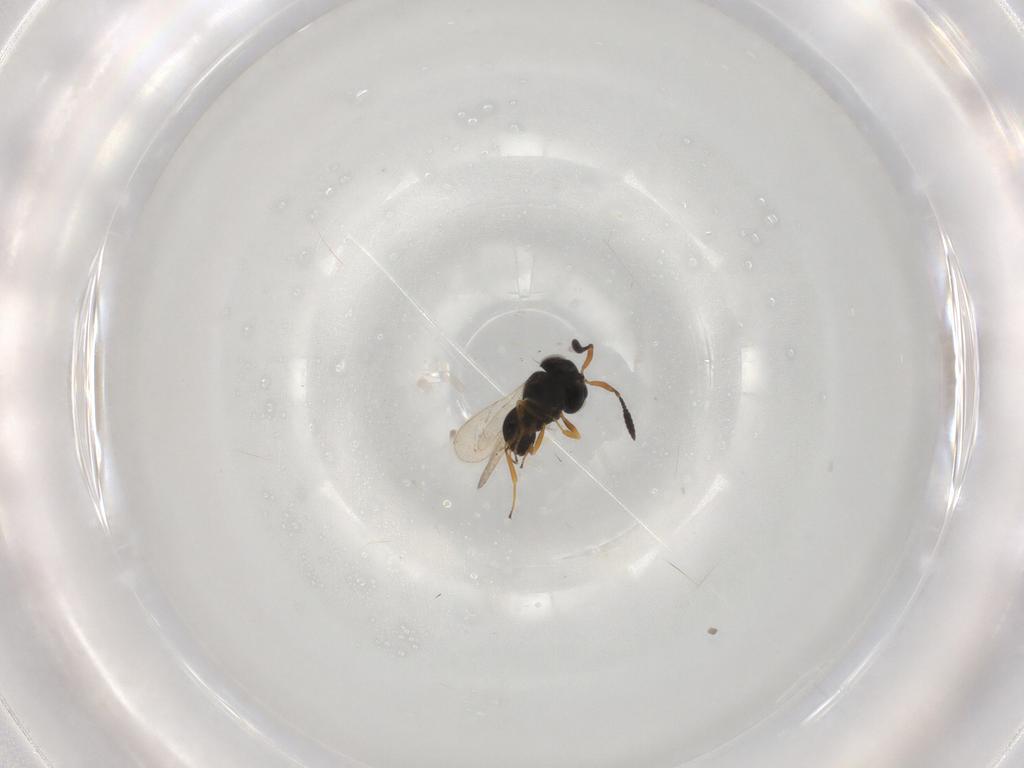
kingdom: Animalia
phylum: Arthropoda
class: Insecta
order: Hymenoptera
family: Scelionidae
